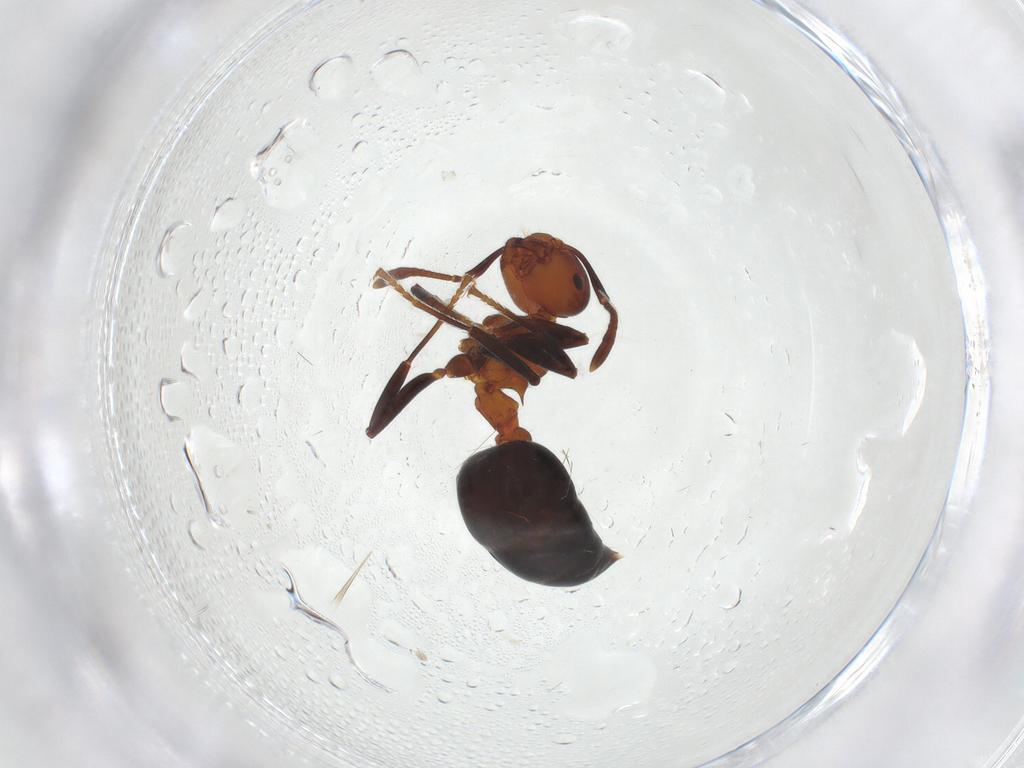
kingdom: Animalia
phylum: Arthropoda
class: Insecta
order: Hymenoptera
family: Formicidae
